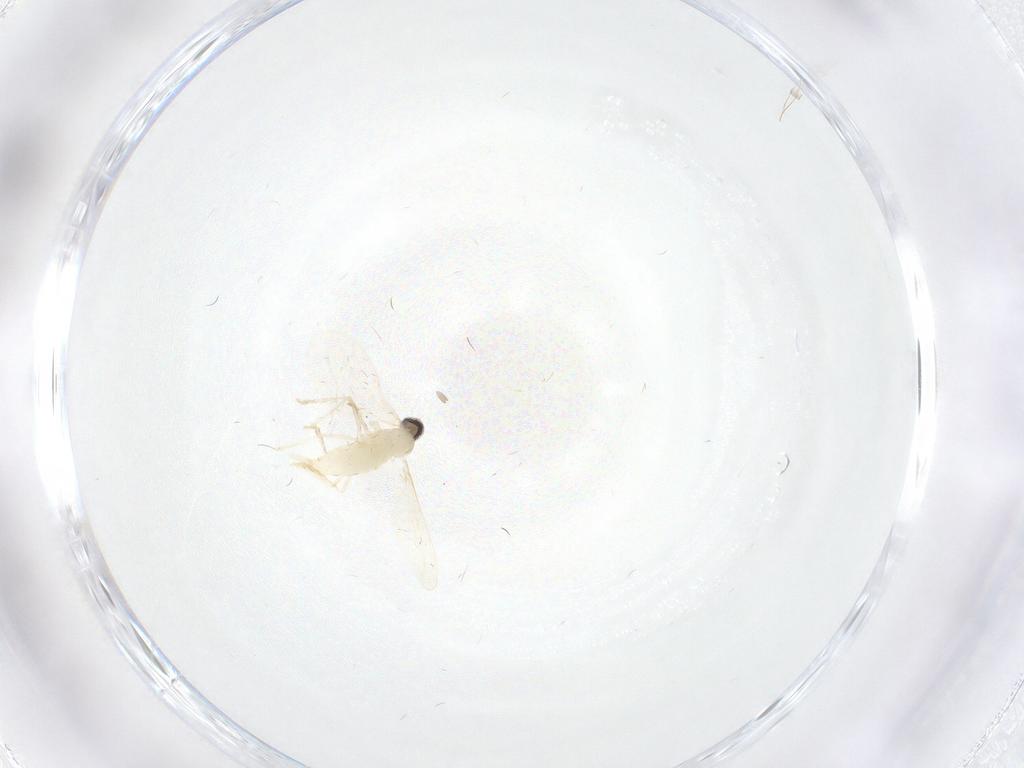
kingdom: Animalia
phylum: Arthropoda
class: Insecta
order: Diptera
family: Cecidomyiidae
